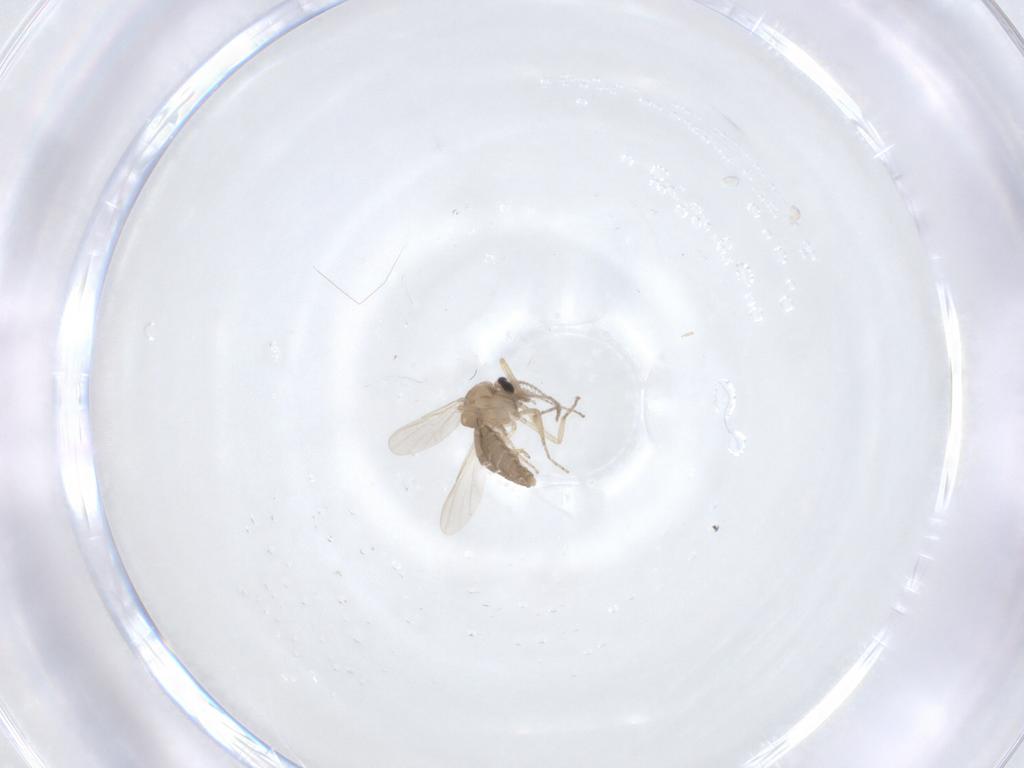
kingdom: Animalia
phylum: Arthropoda
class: Insecta
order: Diptera
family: Ceratopogonidae
